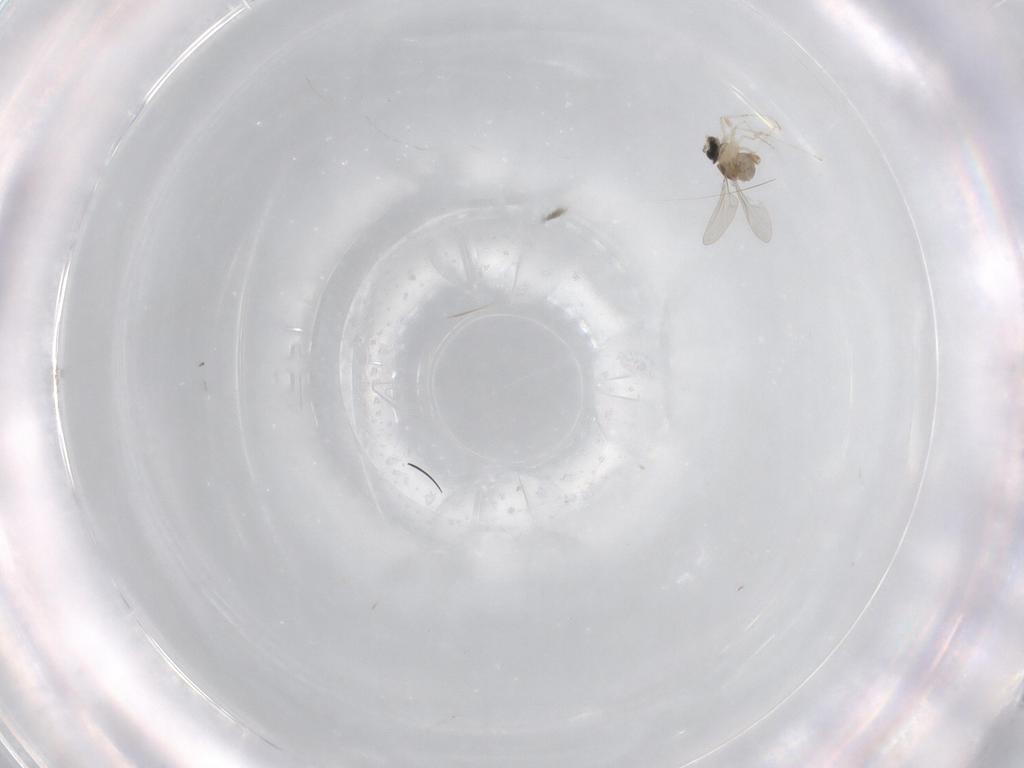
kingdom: Animalia
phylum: Arthropoda
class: Insecta
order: Diptera
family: Cecidomyiidae
